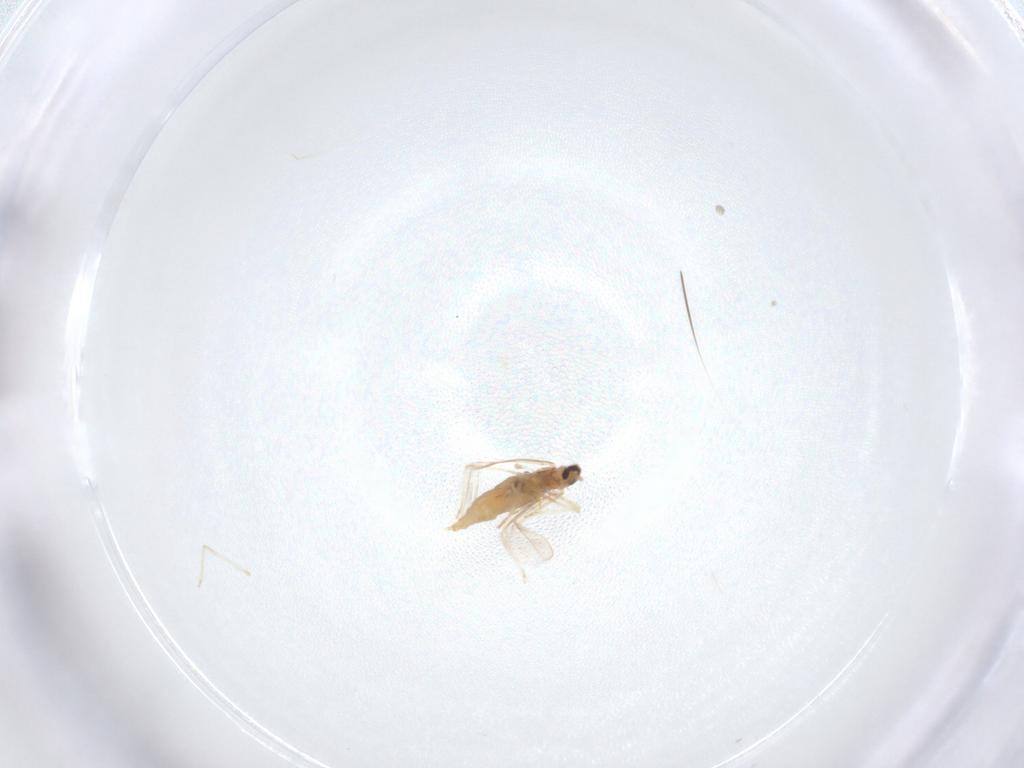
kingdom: Animalia
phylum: Arthropoda
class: Insecta
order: Diptera
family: Cecidomyiidae
